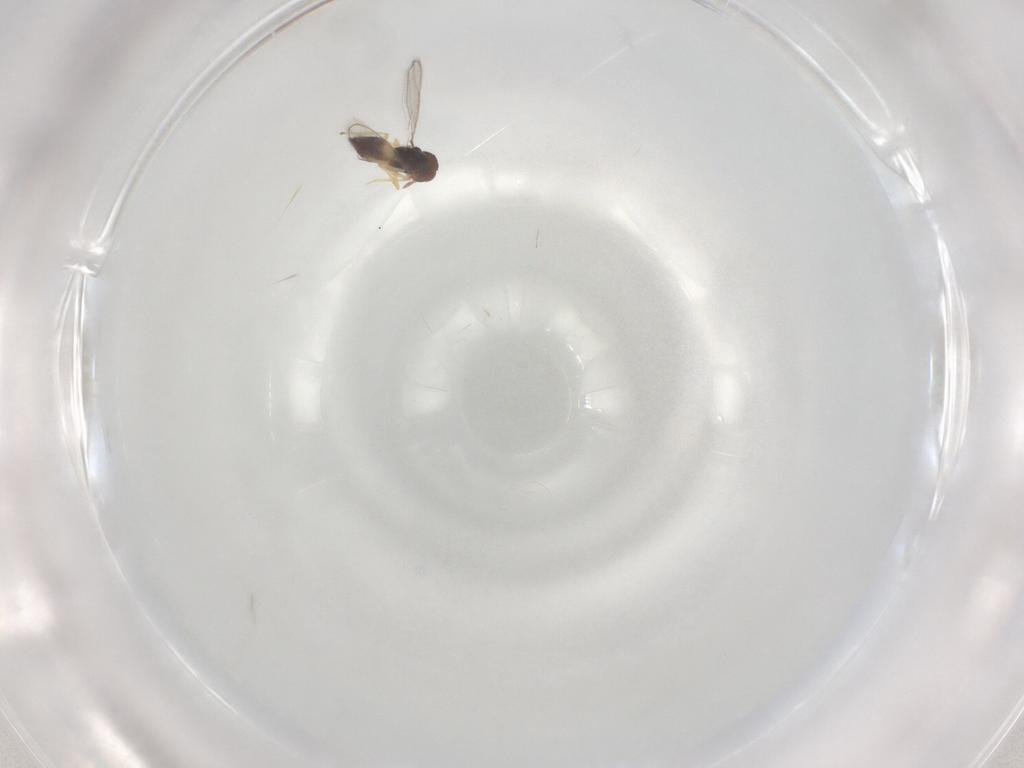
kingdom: Animalia
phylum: Arthropoda
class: Insecta
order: Hymenoptera
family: Eulophidae
